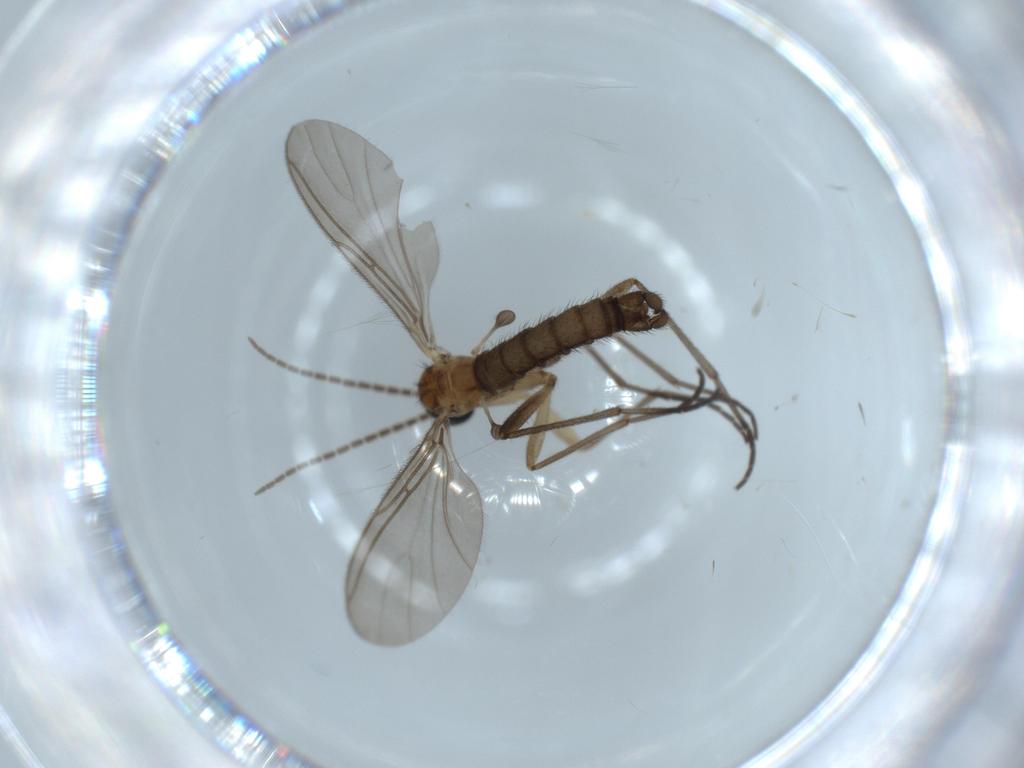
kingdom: Animalia
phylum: Arthropoda
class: Insecta
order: Diptera
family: Sciaridae
